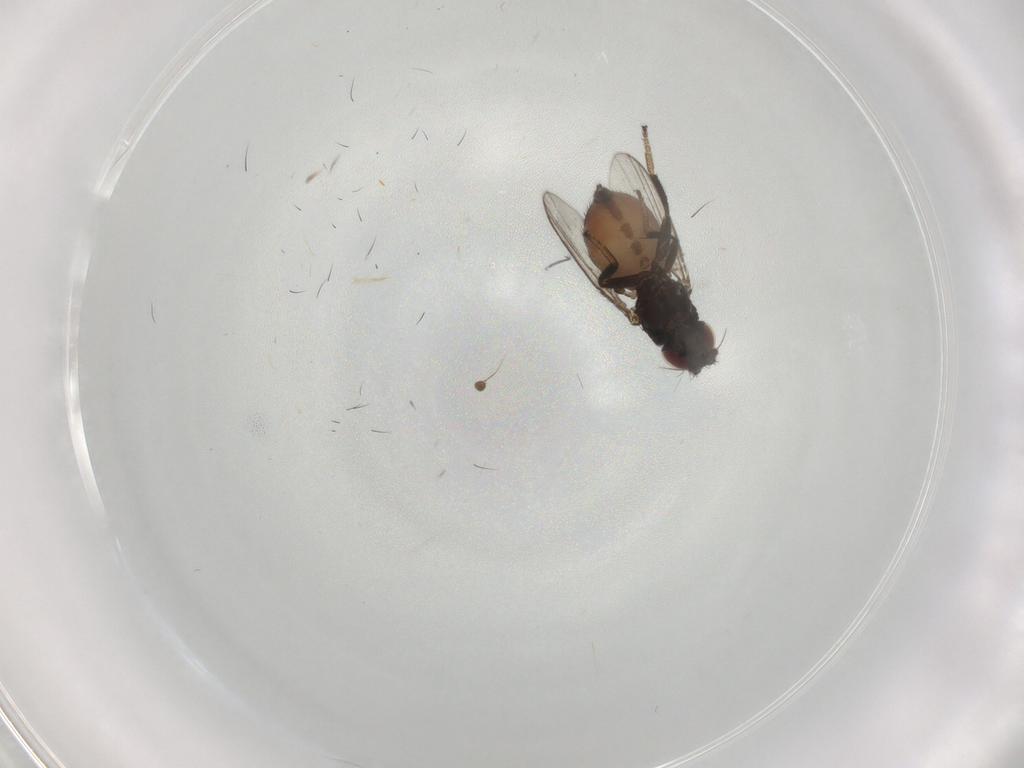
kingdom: Animalia
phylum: Arthropoda
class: Insecta
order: Diptera
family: Milichiidae
